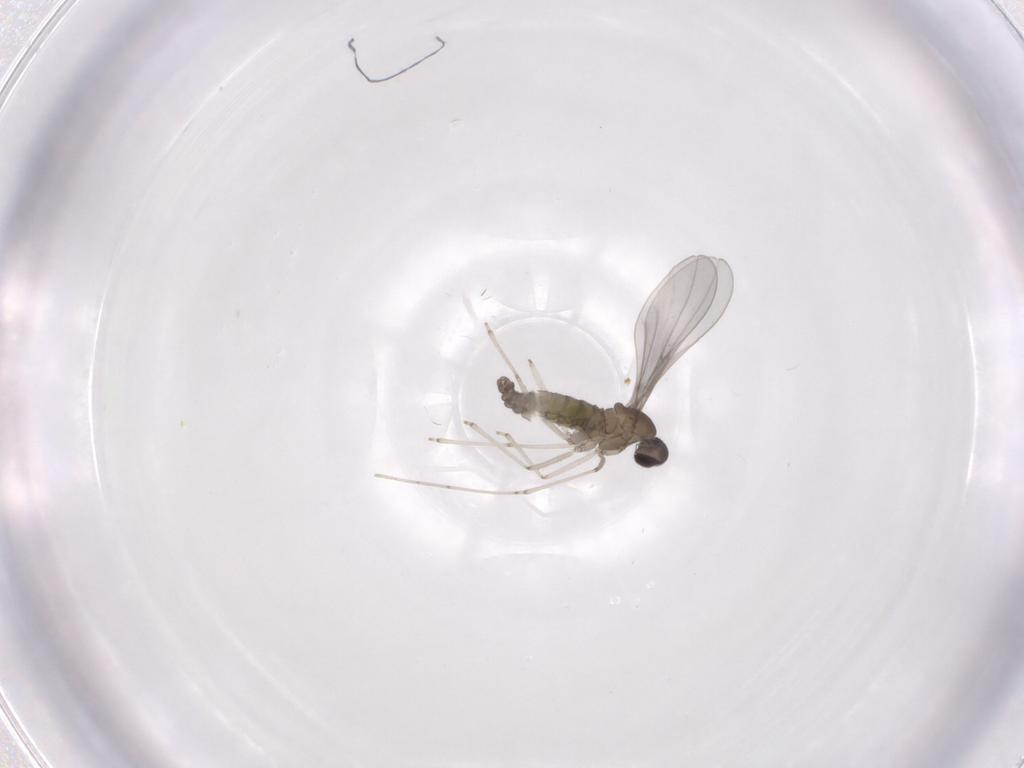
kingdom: Animalia
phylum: Arthropoda
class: Insecta
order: Diptera
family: Cecidomyiidae
